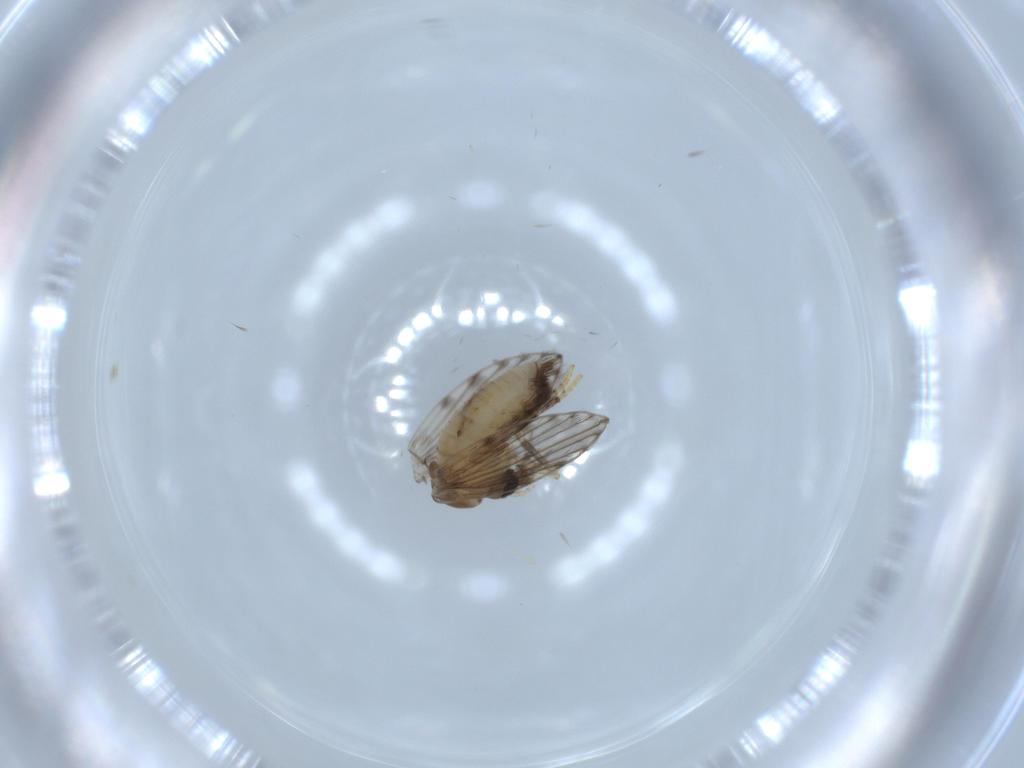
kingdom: Animalia
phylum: Arthropoda
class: Insecta
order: Diptera
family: Psychodidae
